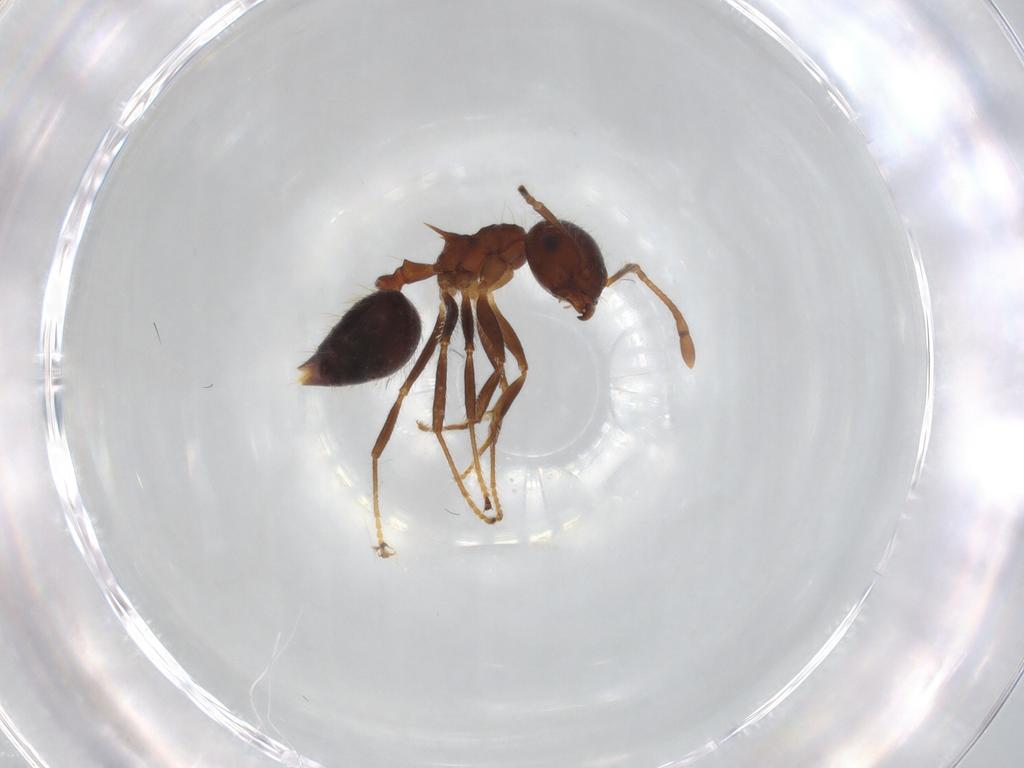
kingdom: Animalia
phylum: Arthropoda
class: Insecta
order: Hymenoptera
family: Formicidae
